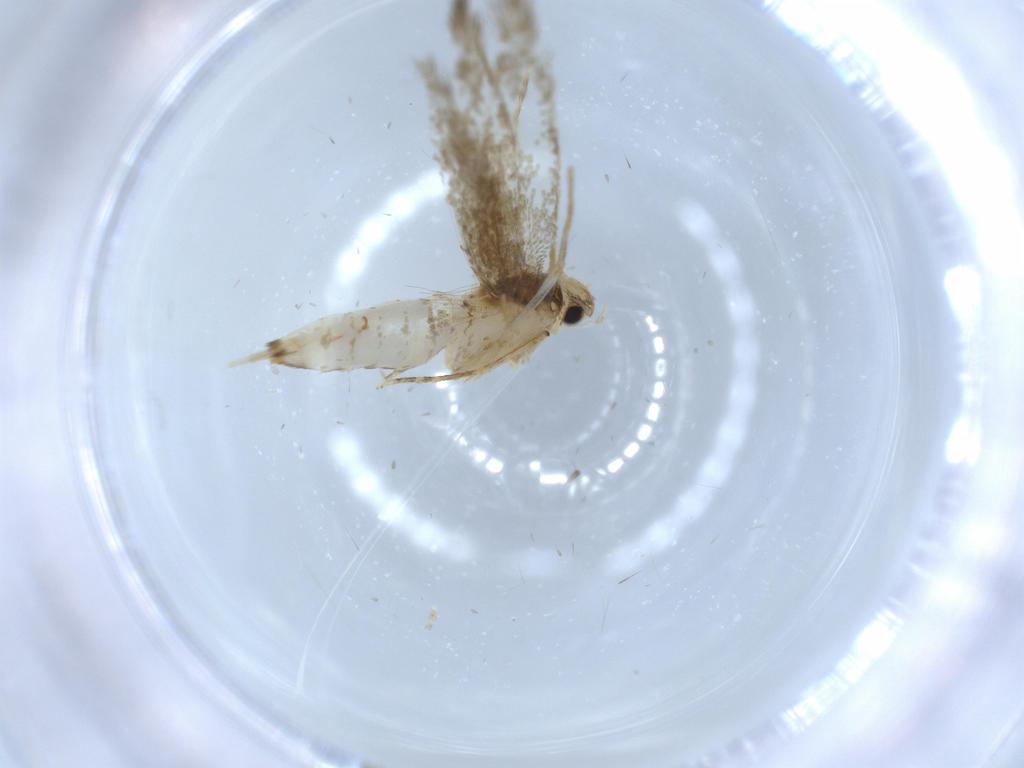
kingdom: Animalia
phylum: Arthropoda
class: Insecta
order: Lepidoptera
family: Tineidae
